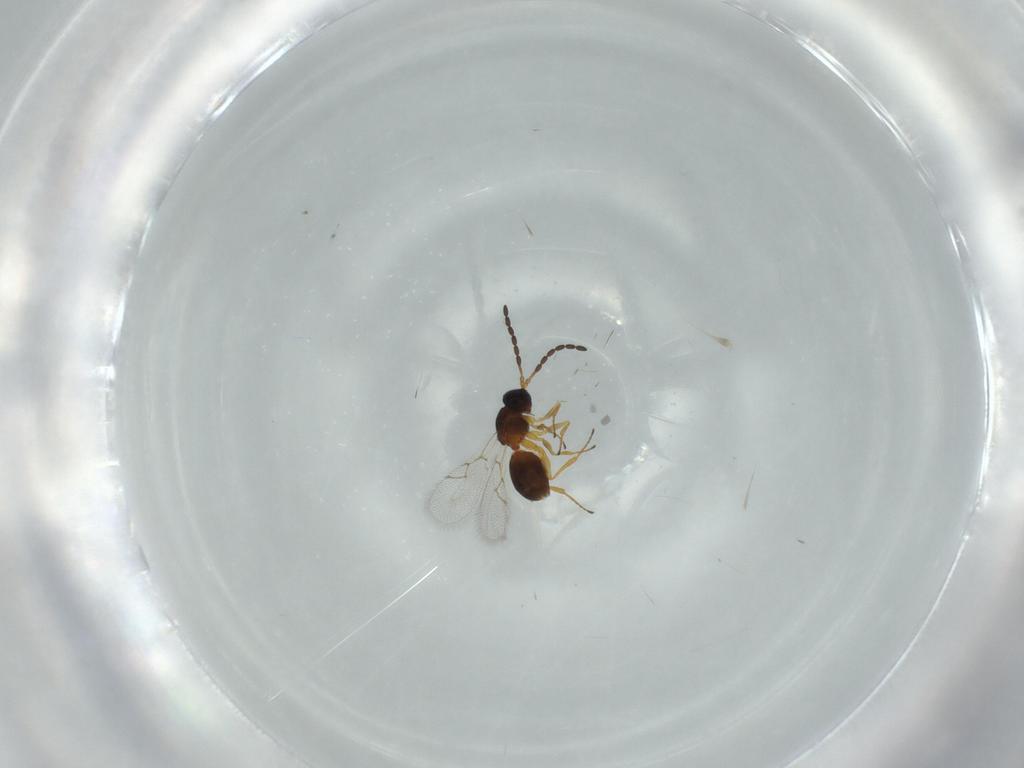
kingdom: Animalia
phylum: Arthropoda
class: Insecta
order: Hymenoptera
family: Figitidae
